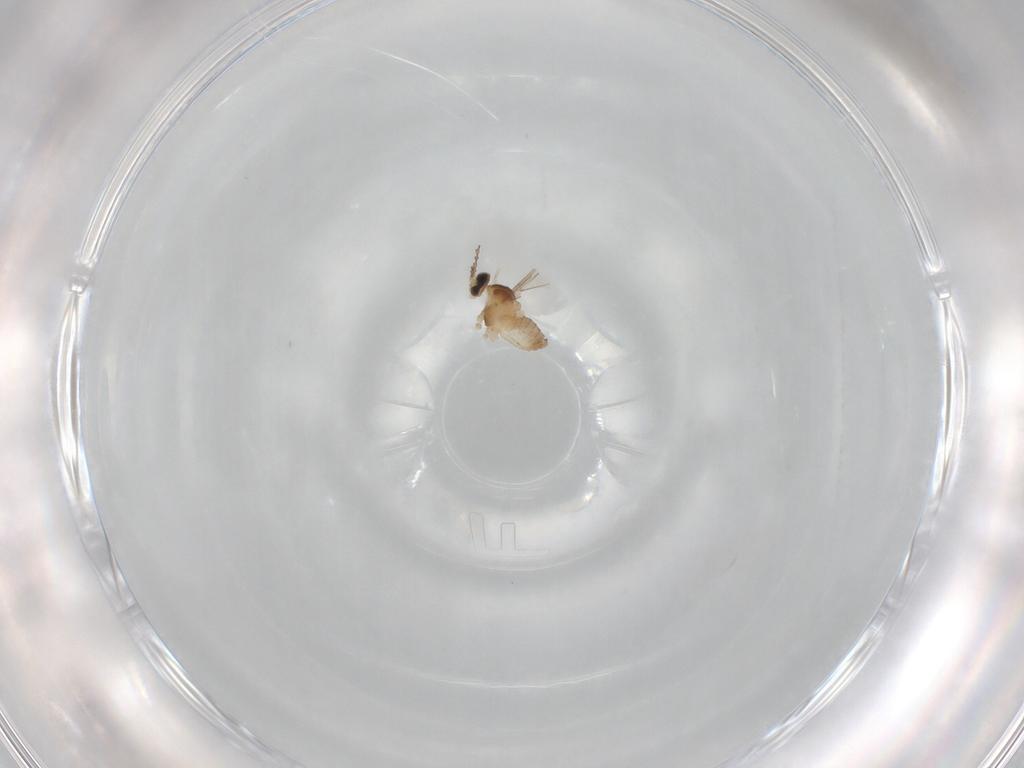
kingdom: Animalia
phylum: Arthropoda
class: Insecta
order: Diptera
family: Cecidomyiidae
